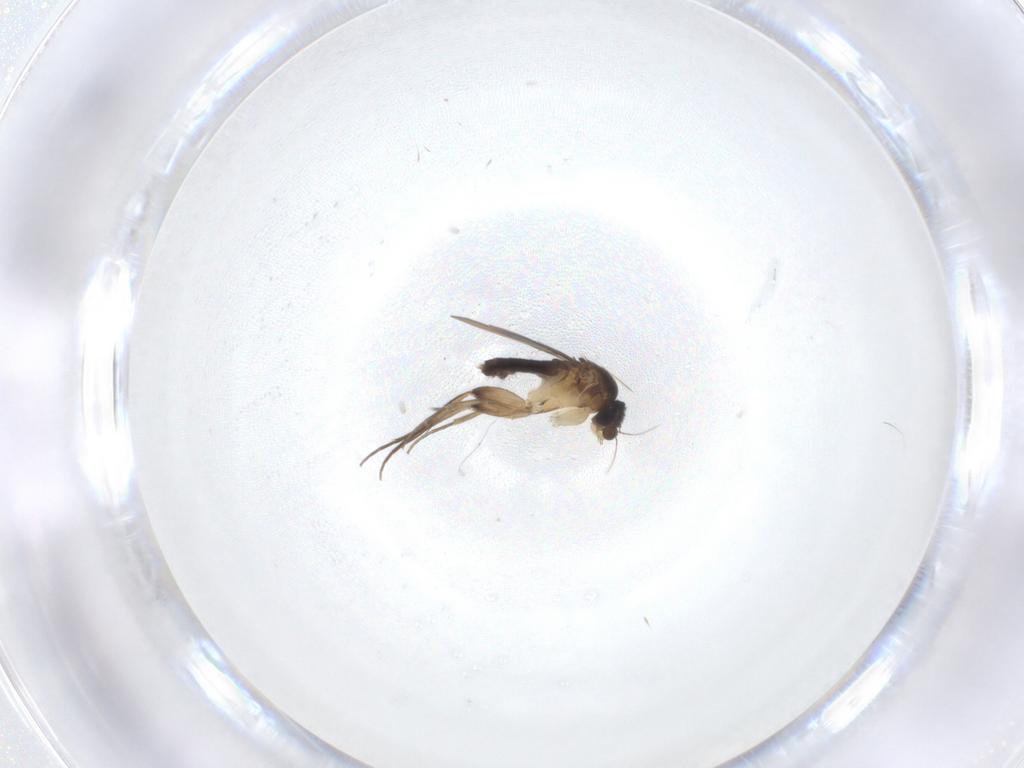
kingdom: Animalia
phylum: Arthropoda
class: Insecta
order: Diptera
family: Phoridae
